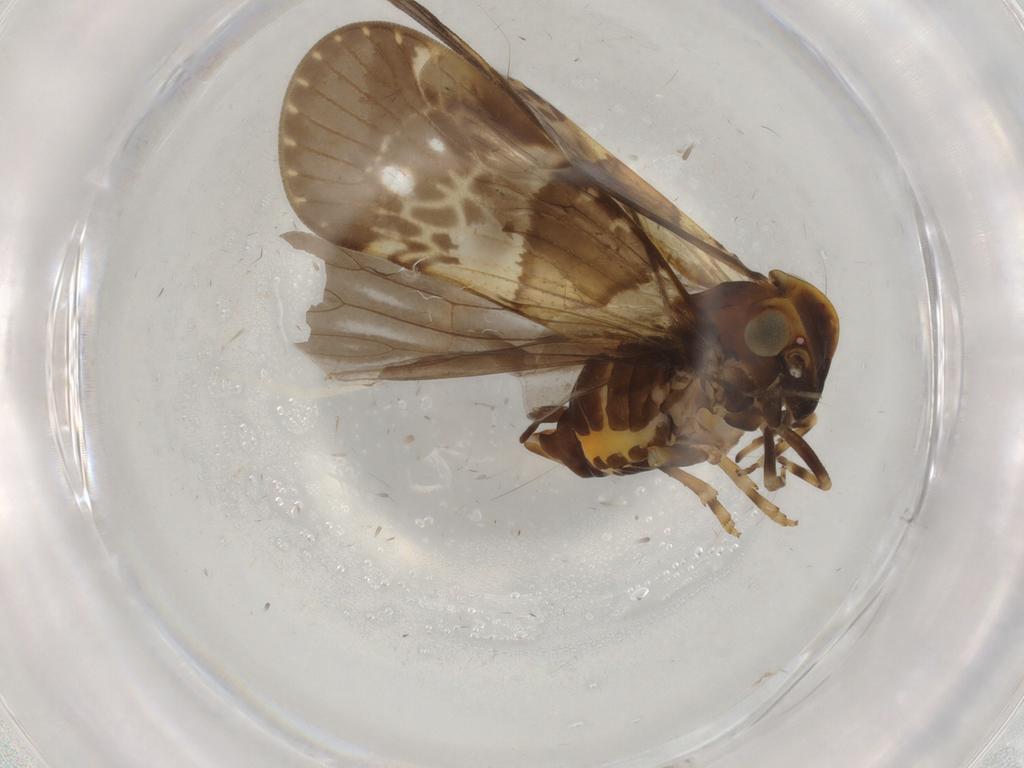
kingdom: Animalia
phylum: Arthropoda
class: Insecta
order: Hemiptera
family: Cixiidae
